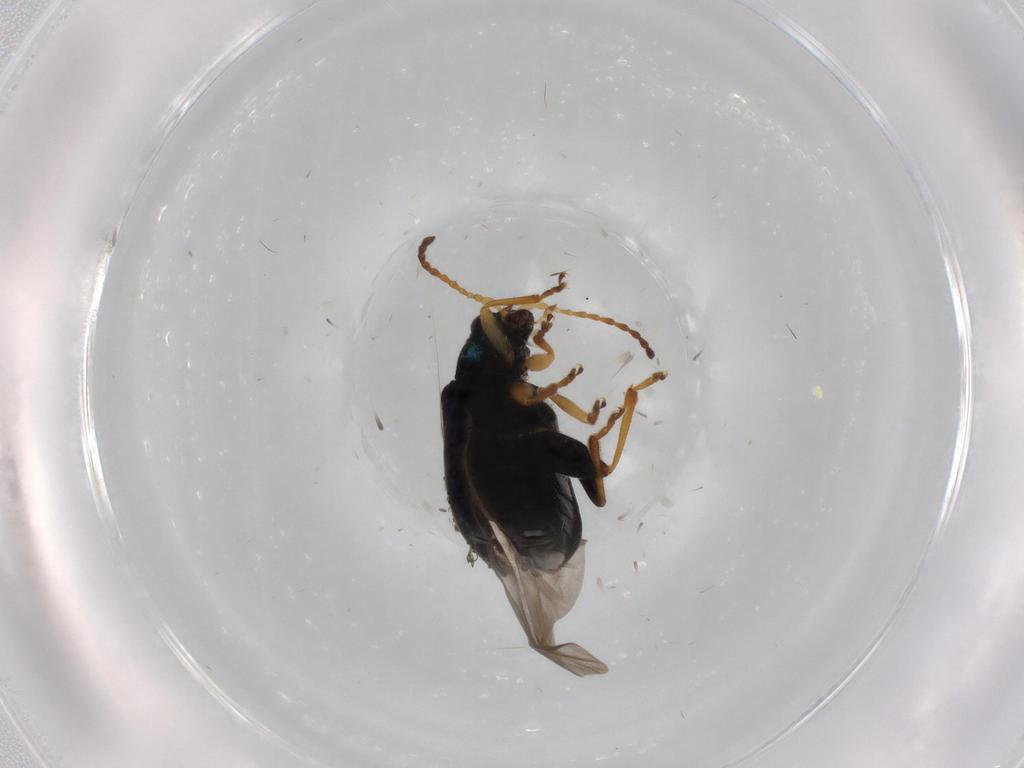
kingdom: Animalia
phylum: Arthropoda
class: Insecta
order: Coleoptera
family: Chrysomelidae
